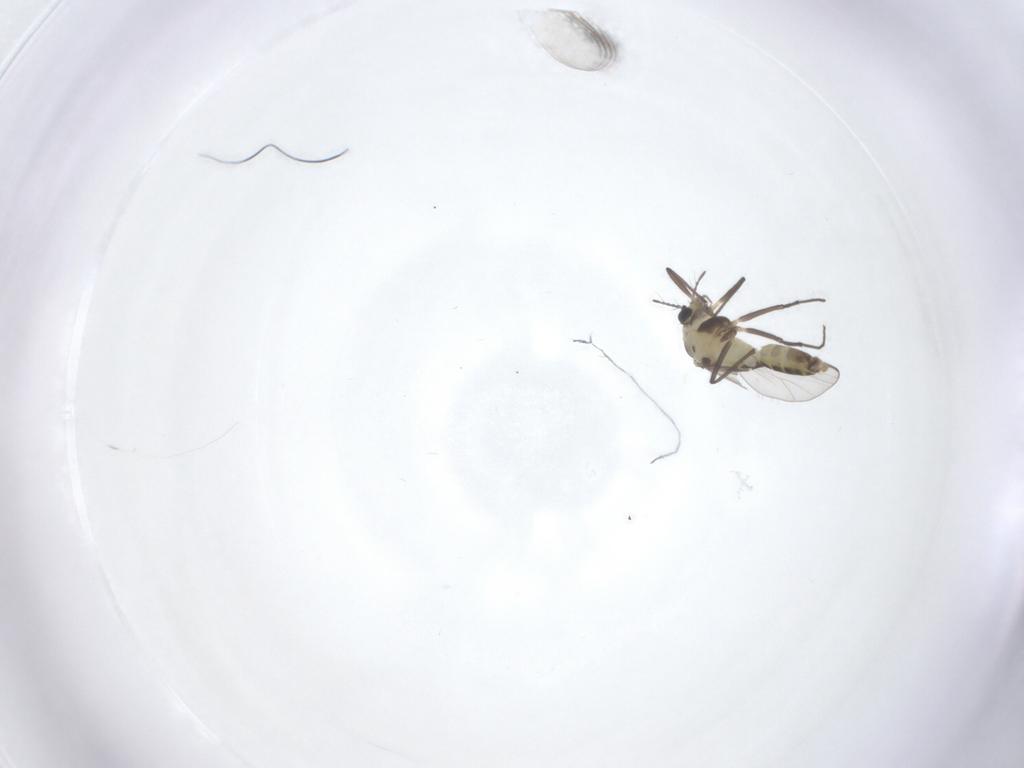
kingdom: Animalia
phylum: Arthropoda
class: Insecta
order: Diptera
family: Chironomidae
